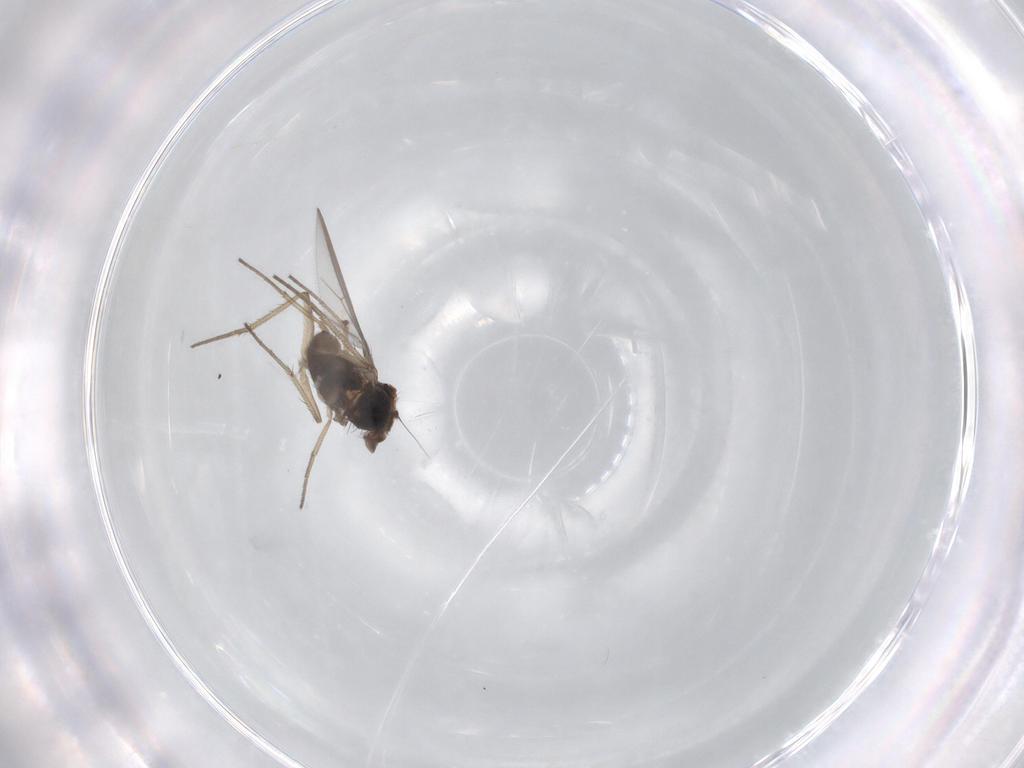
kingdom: Animalia
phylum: Arthropoda
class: Insecta
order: Diptera
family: Cecidomyiidae
